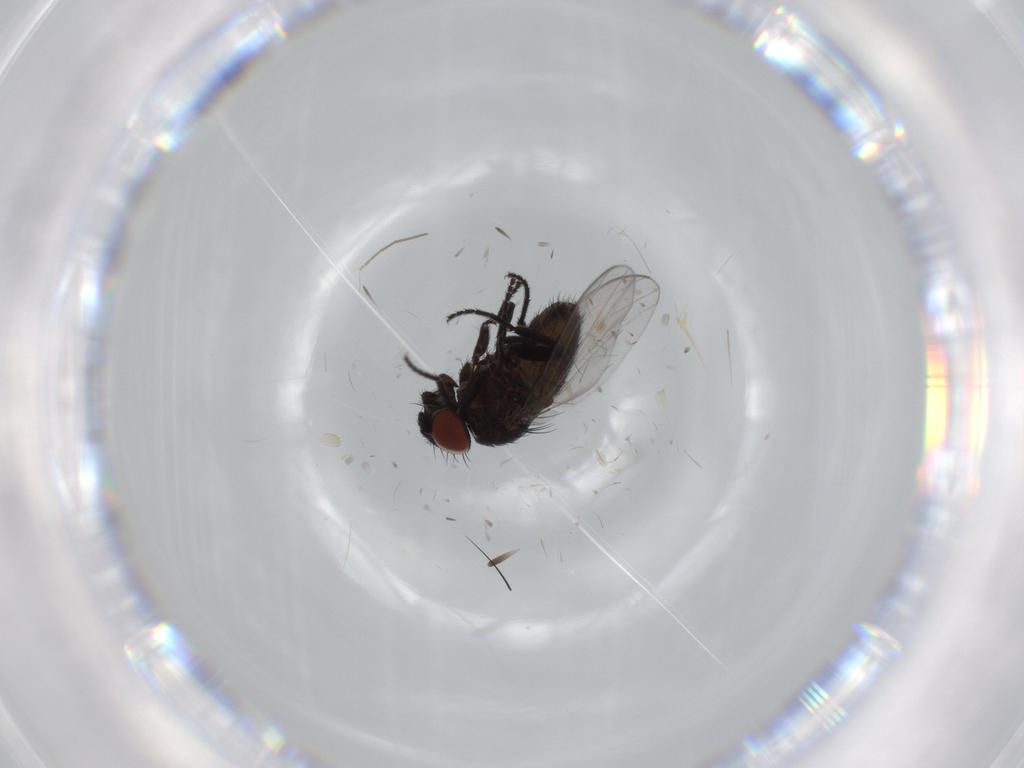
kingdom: Animalia
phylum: Arthropoda
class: Insecta
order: Diptera
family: Milichiidae
